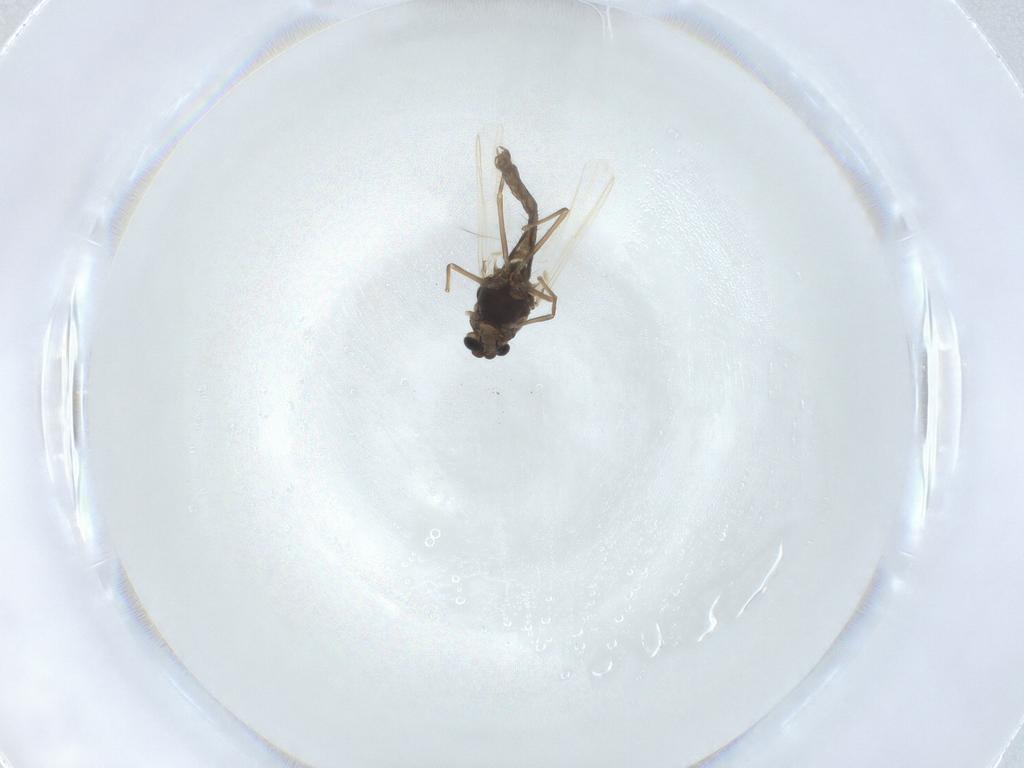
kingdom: Animalia
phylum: Arthropoda
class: Insecta
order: Diptera
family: Chironomidae
